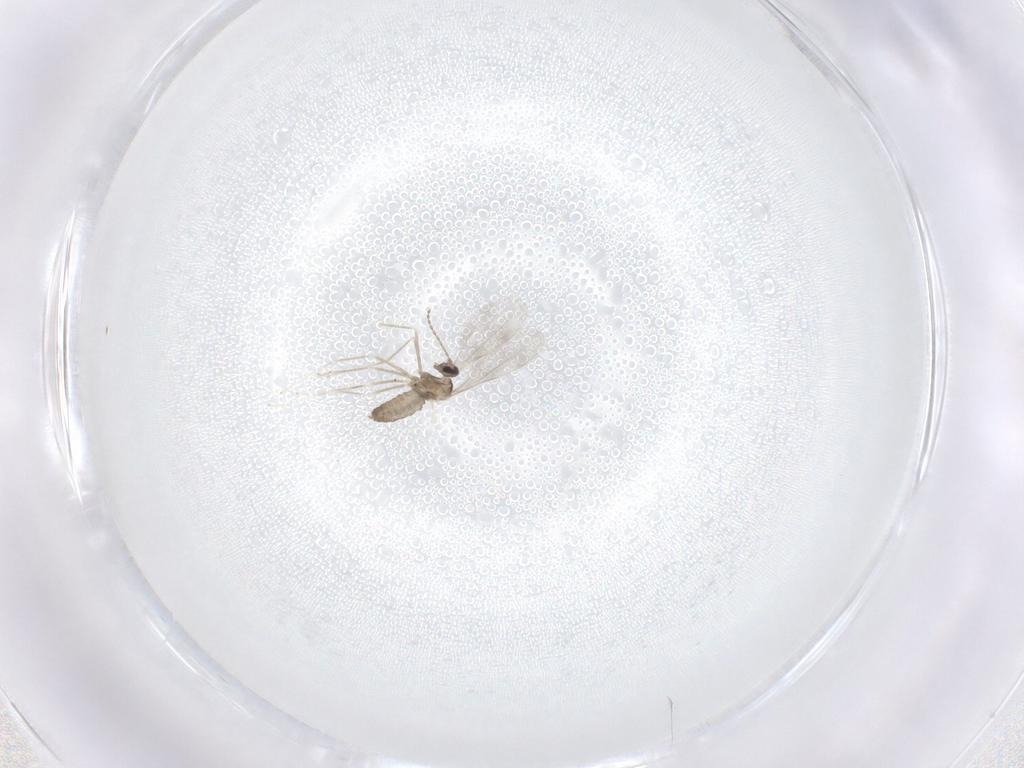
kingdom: Animalia
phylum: Arthropoda
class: Insecta
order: Diptera
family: Cecidomyiidae
